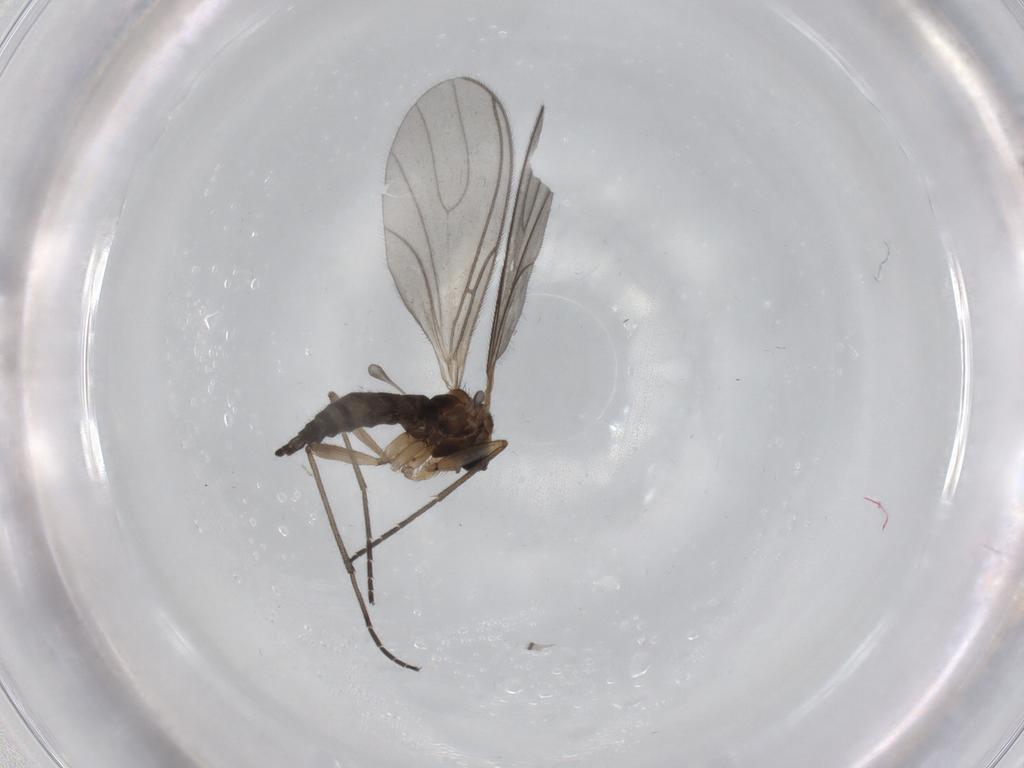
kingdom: Animalia
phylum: Arthropoda
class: Insecta
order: Diptera
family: Sciaridae
